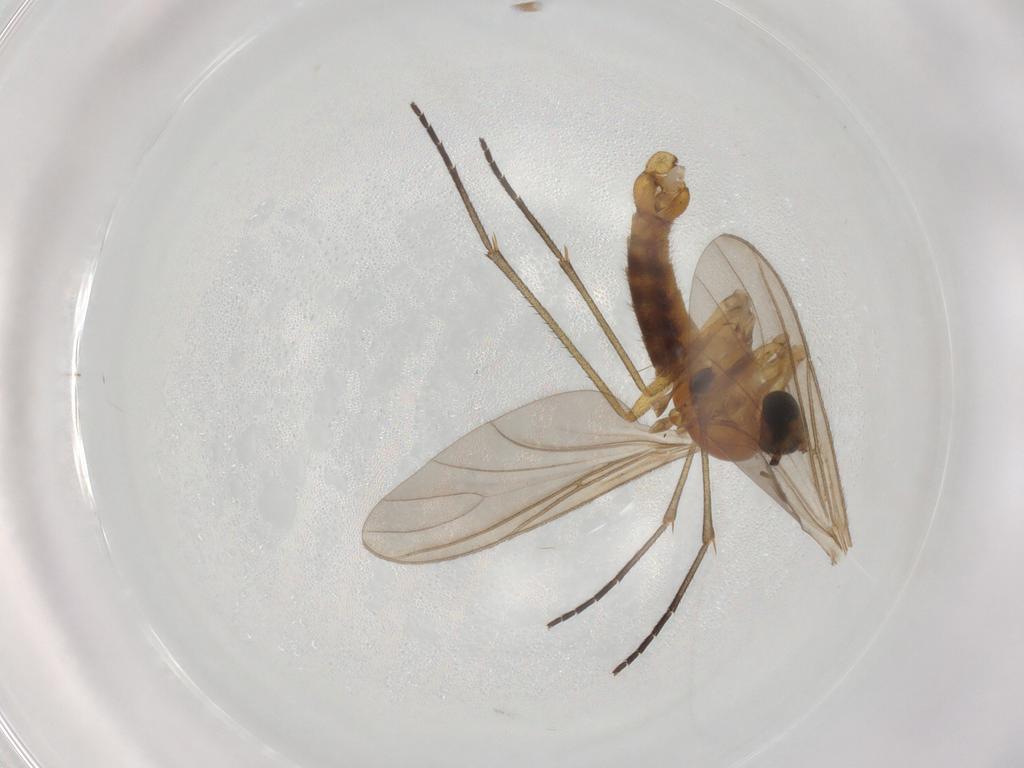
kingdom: Animalia
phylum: Arthropoda
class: Insecta
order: Diptera
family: Sciaridae
